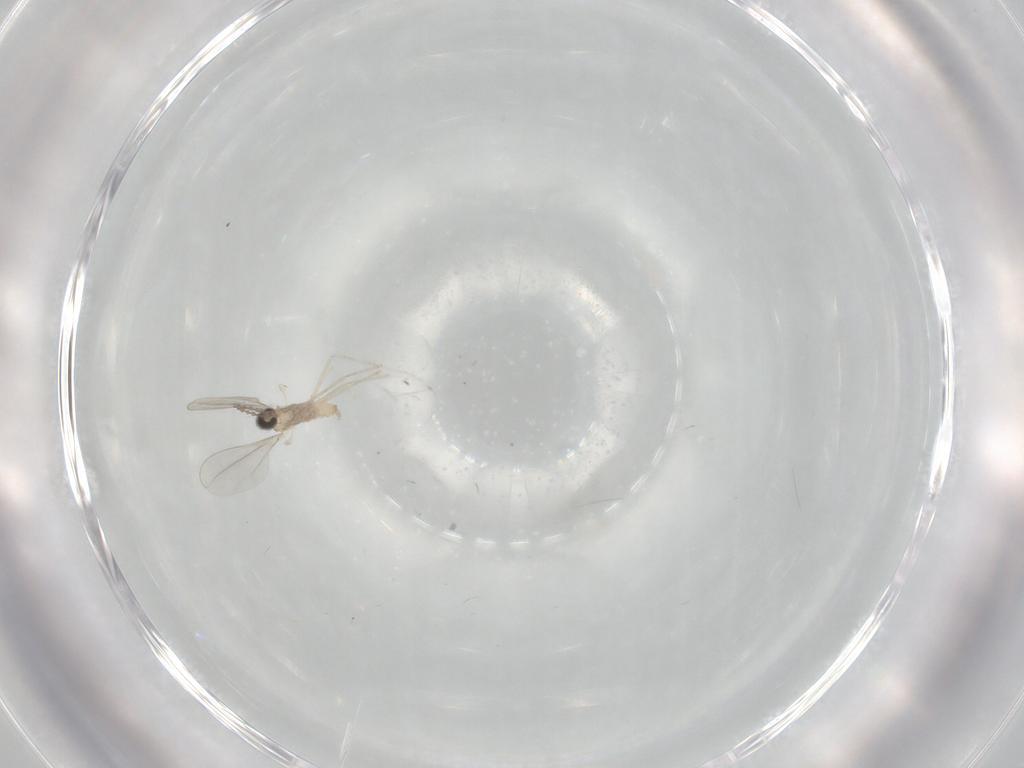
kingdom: Animalia
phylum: Arthropoda
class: Insecta
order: Diptera
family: Cecidomyiidae
